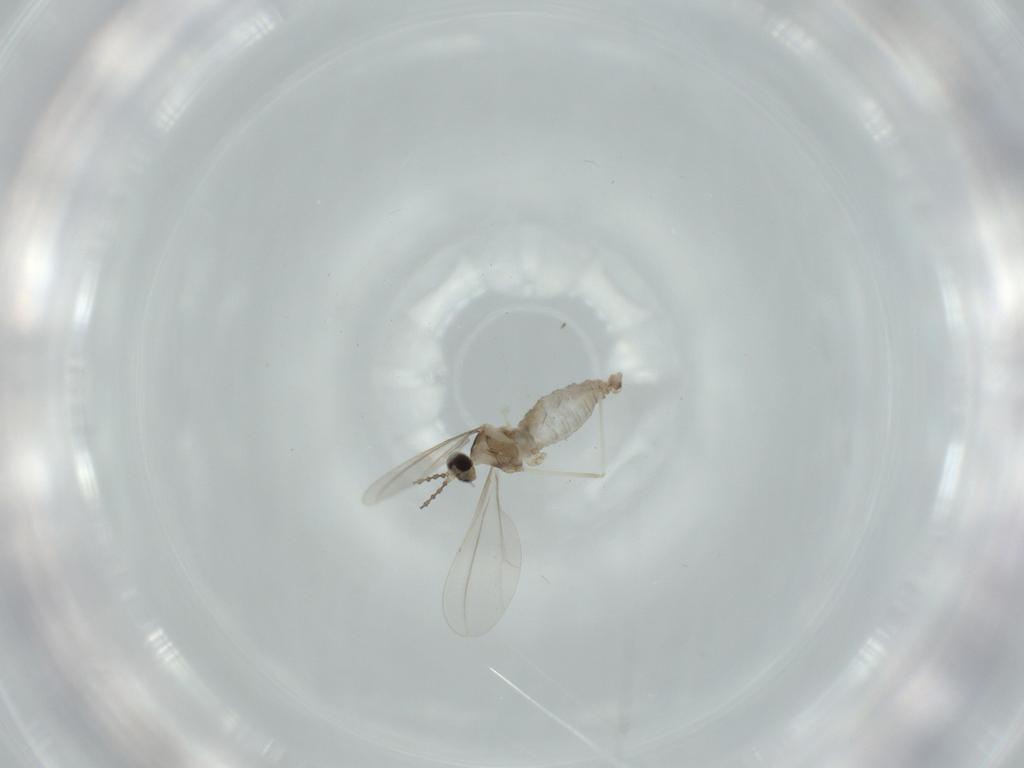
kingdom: Animalia
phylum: Arthropoda
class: Insecta
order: Diptera
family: Cecidomyiidae
